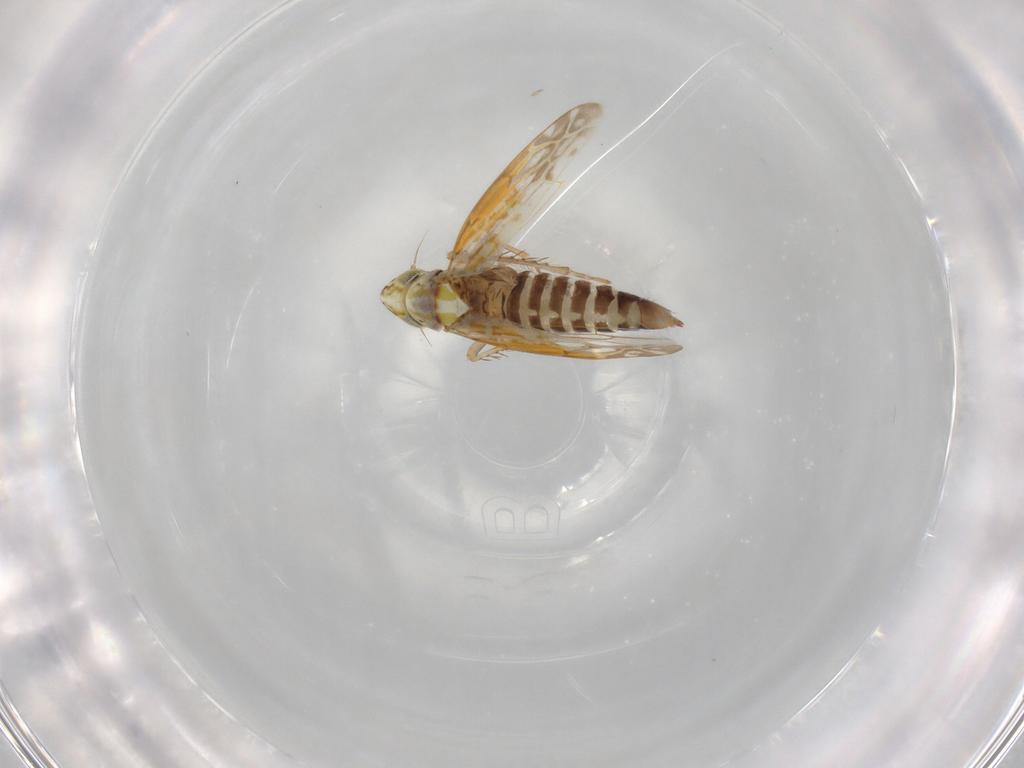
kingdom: Animalia
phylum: Arthropoda
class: Insecta
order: Hemiptera
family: Cicadellidae
